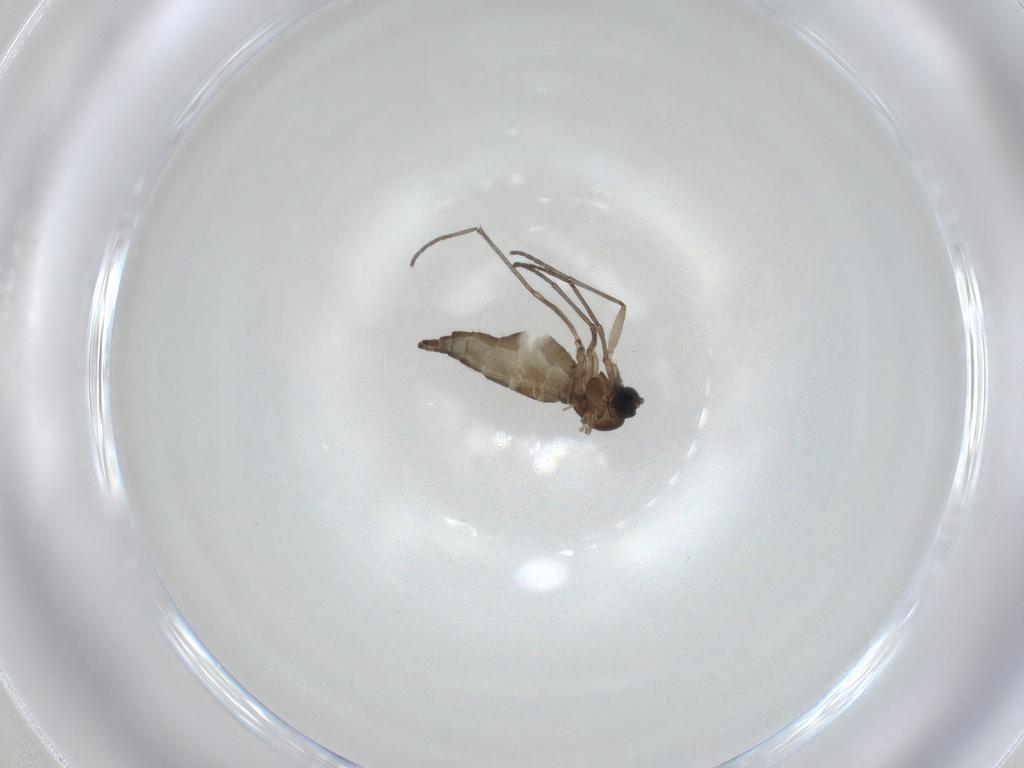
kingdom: Animalia
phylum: Arthropoda
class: Insecta
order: Diptera
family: Sciaridae
